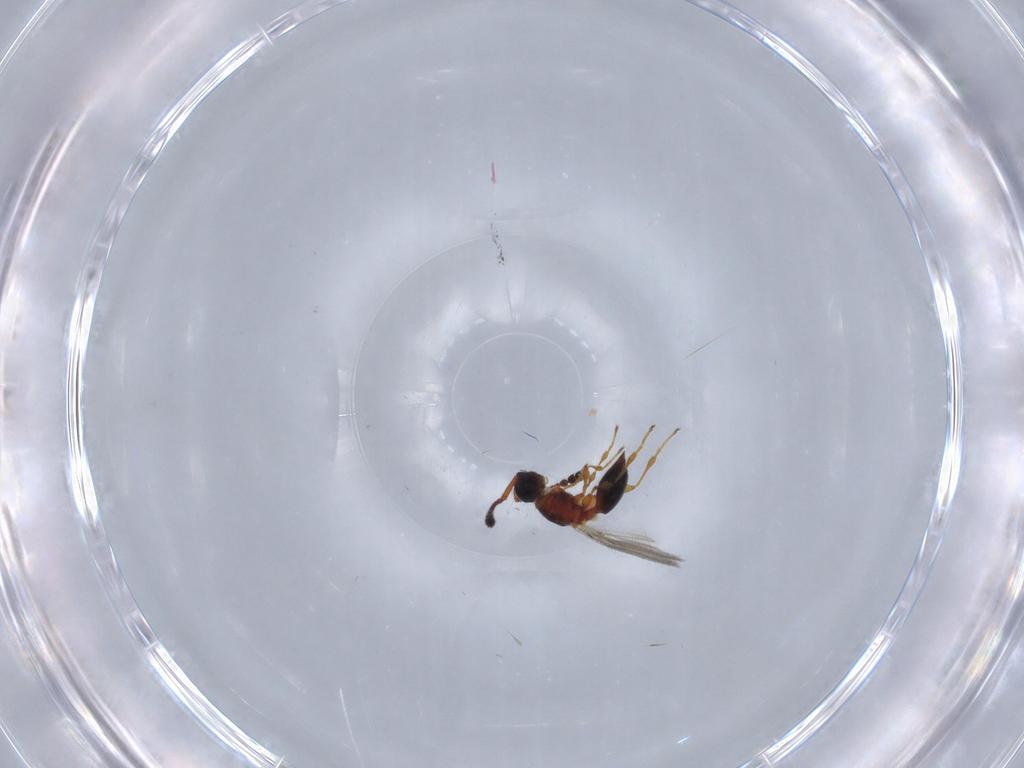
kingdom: Animalia
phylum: Arthropoda
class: Insecta
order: Hymenoptera
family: Diapriidae
